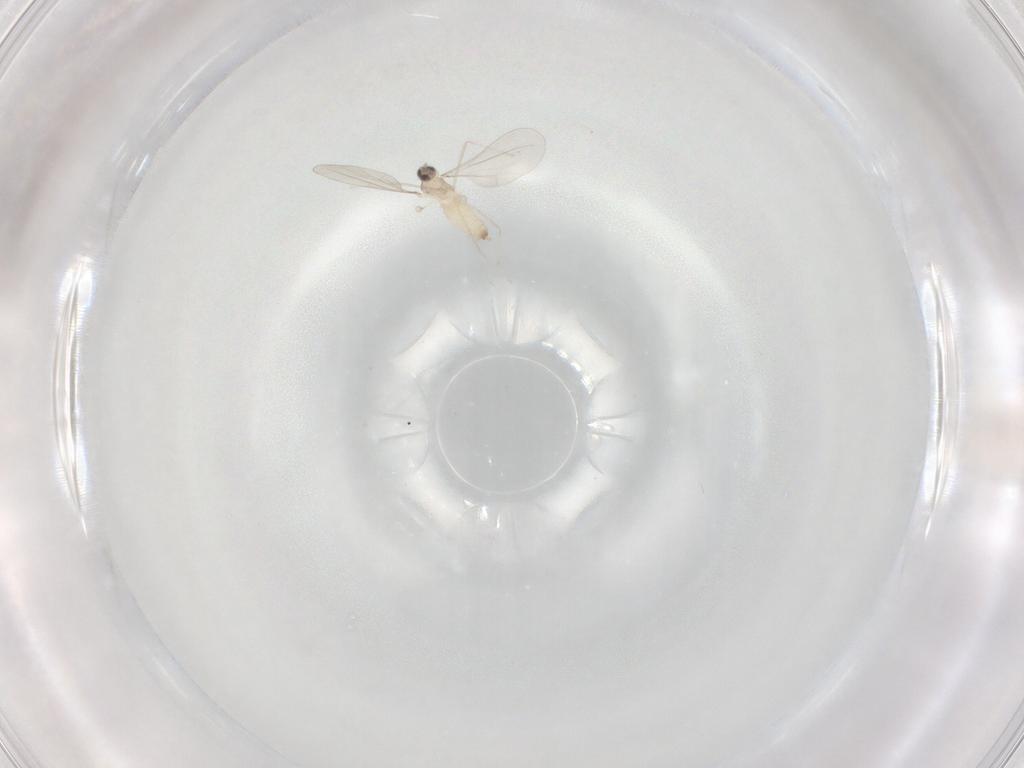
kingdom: Animalia
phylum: Arthropoda
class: Insecta
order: Diptera
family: Cecidomyiidae
